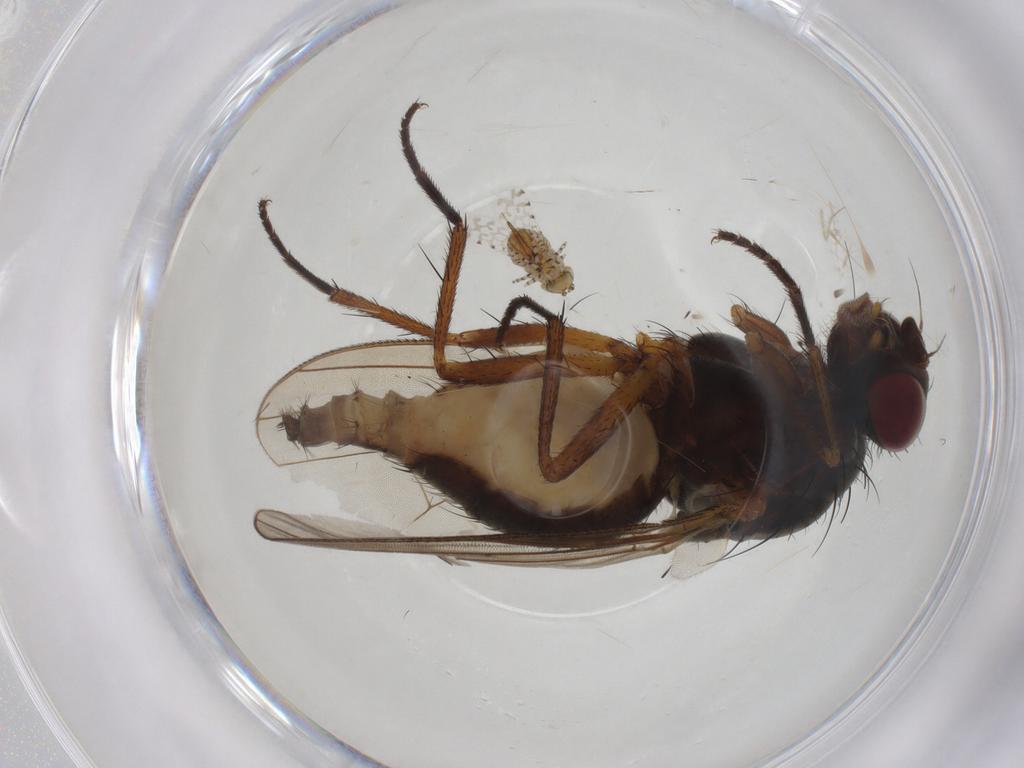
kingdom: Animalia
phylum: Arthropoda
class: Insecta
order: Diptera
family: Anthomyiidae
